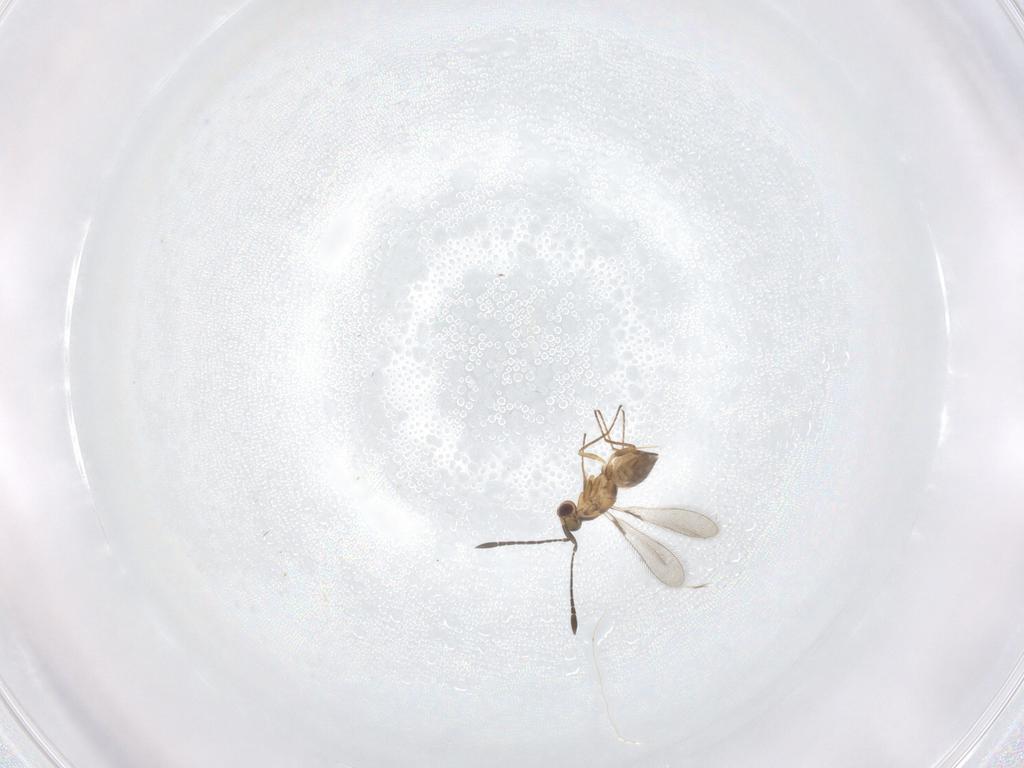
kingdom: Animalia
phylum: Arthropoda
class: Insecta
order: Hymenoptera
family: Mymaridae
